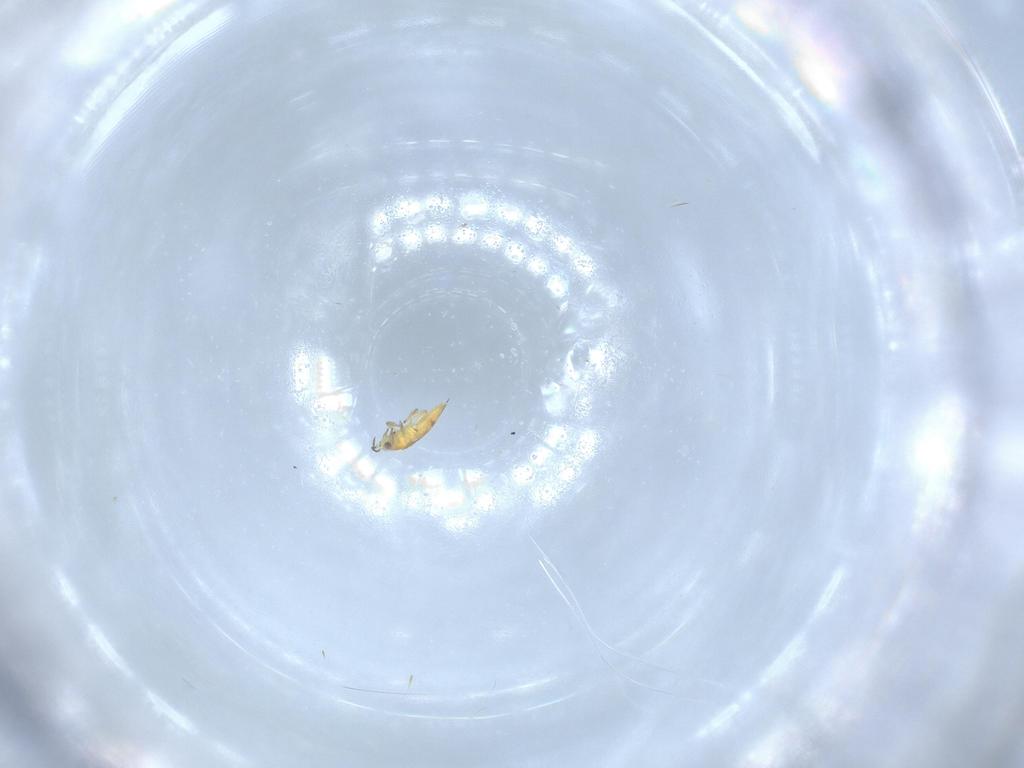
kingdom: Animalia
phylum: Arthropoda
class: Insecta
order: Thysanoptera
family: Thripidae
